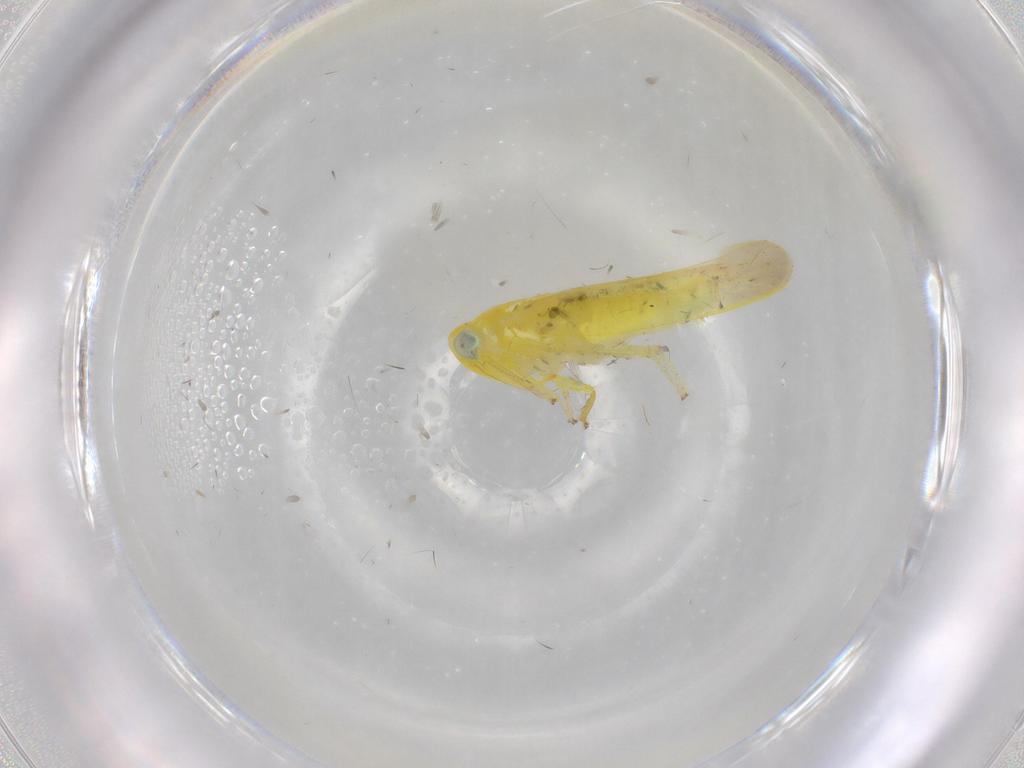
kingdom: Animalia
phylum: Arthropoda
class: Insecta
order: Hemiptera
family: Cicadellidae
